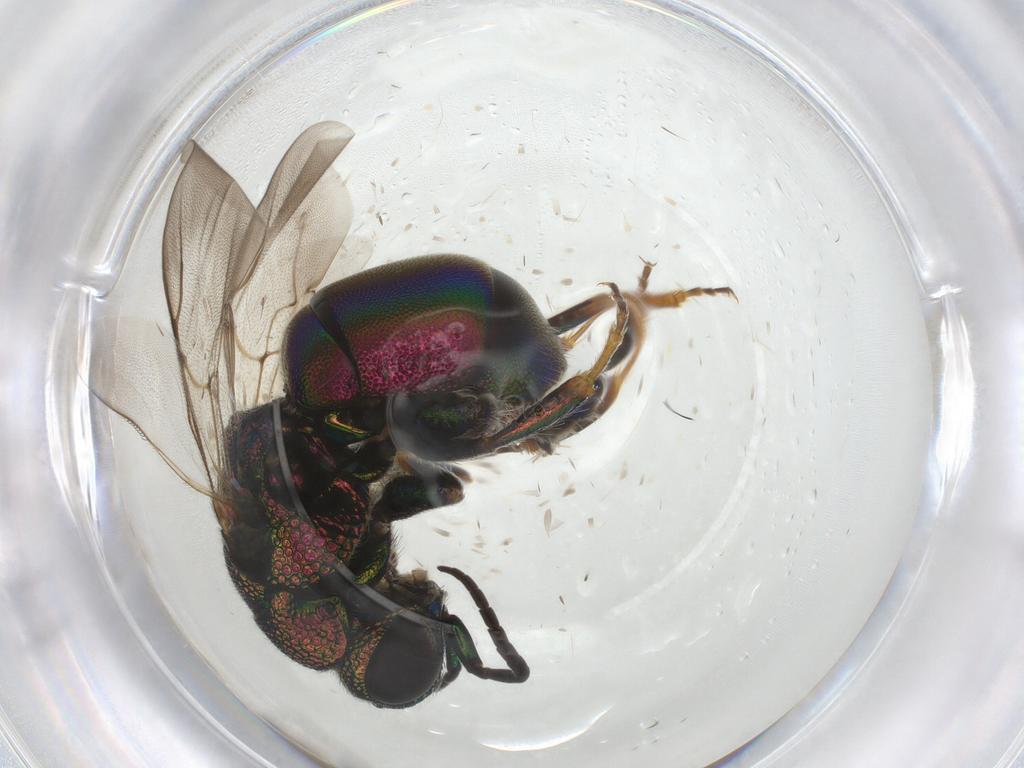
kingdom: Animalia
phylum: Arthropoda
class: Insecta
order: Hymenoptera
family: Chrysididae
